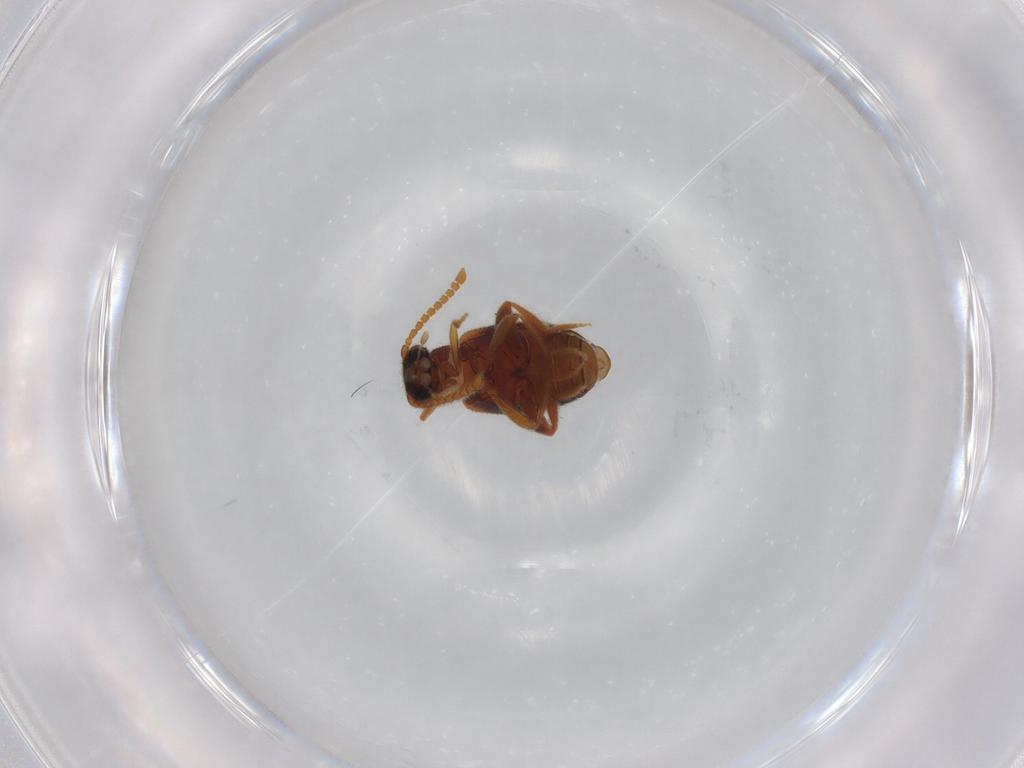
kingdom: Animalia
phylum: Arthropoda
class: Insecta
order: Coleoptera
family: Aderidae
